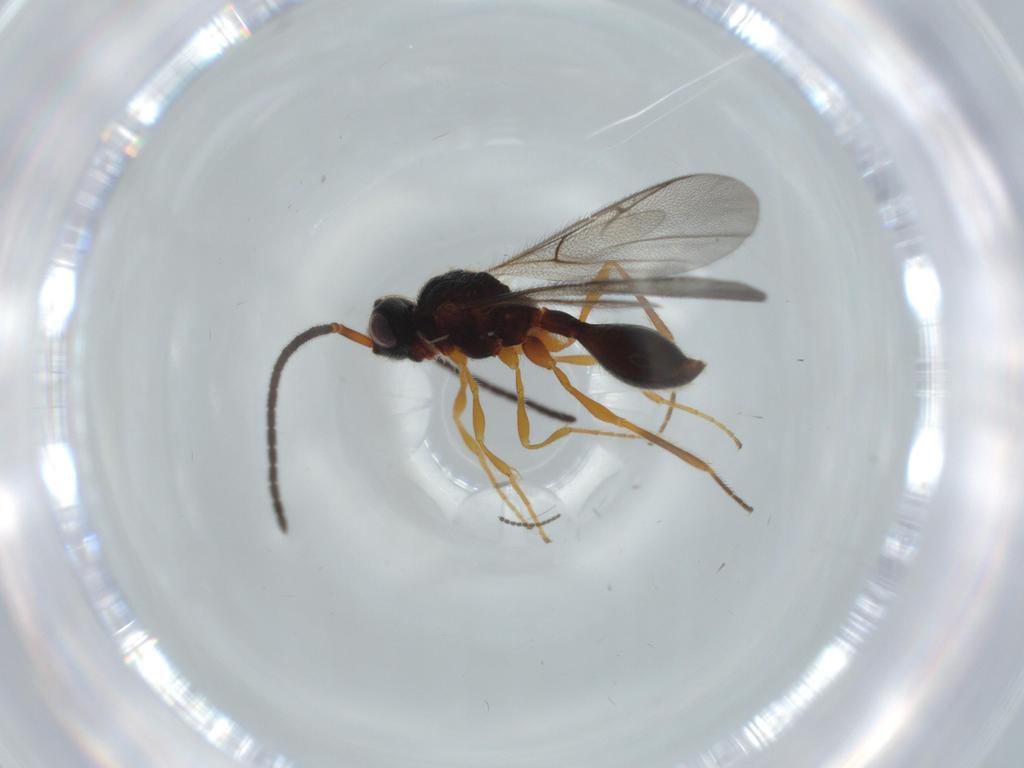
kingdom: Animalia
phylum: Arthropoda
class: Insecta
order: Hymenoptera
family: Diapriidae
